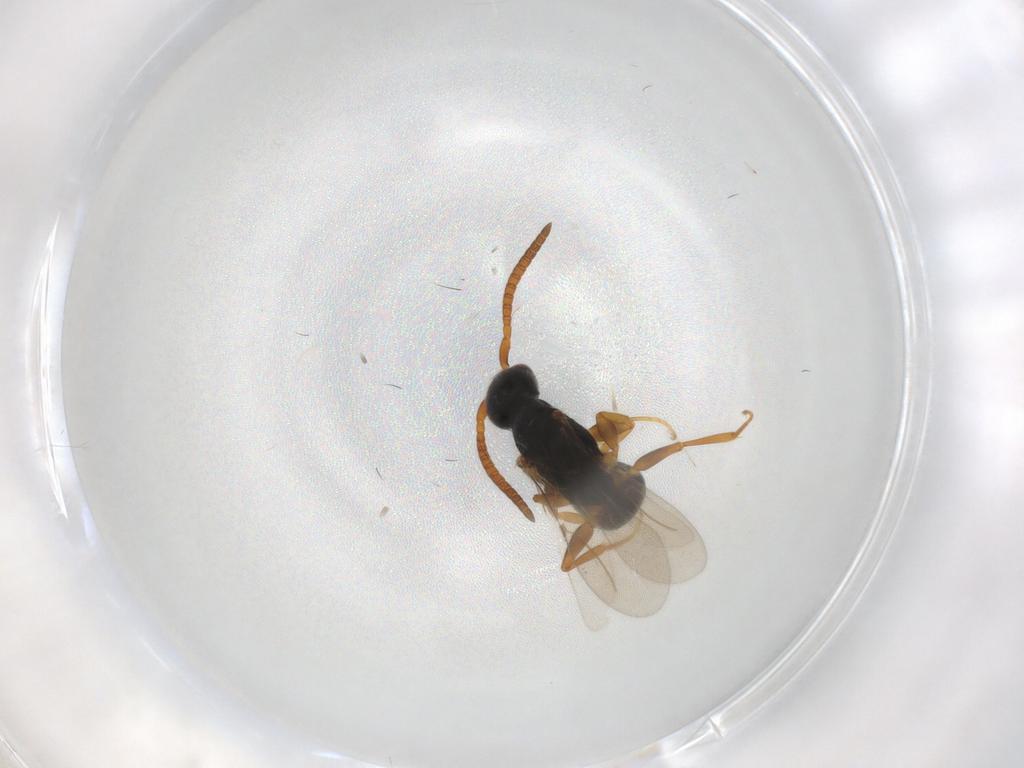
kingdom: Animalia
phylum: Arthropoda
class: Insecta
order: Hymenoptera
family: Bethylidae
